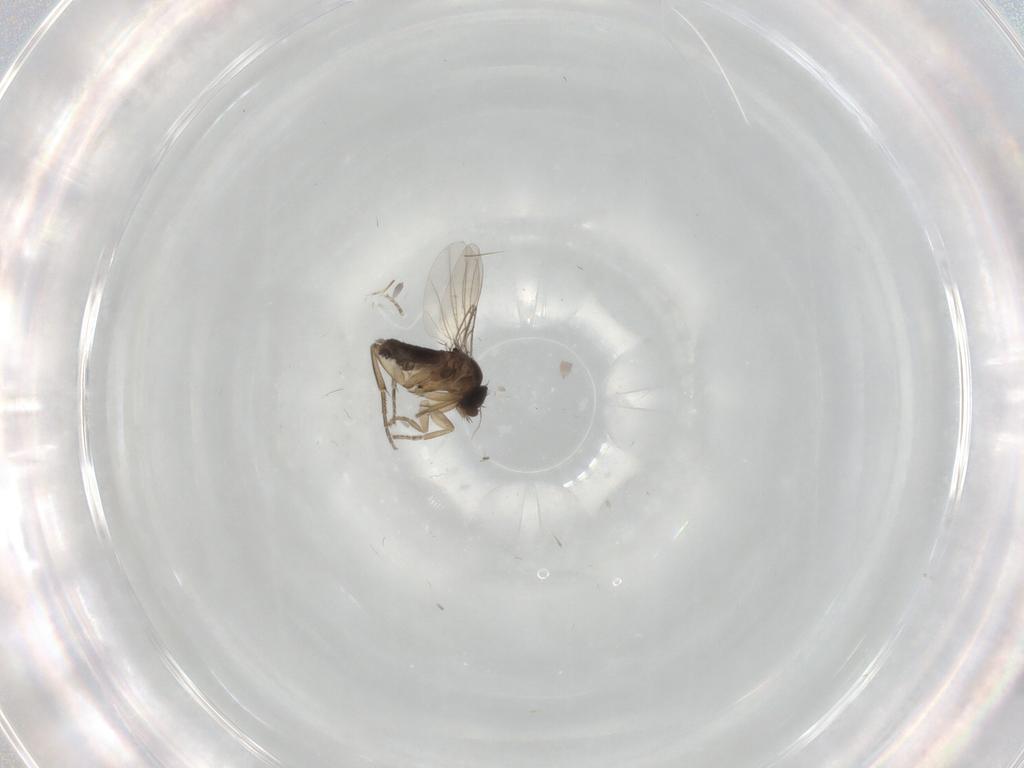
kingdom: Animalia
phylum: Arthropoda
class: Insecta
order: Diptera
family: Phoridae
